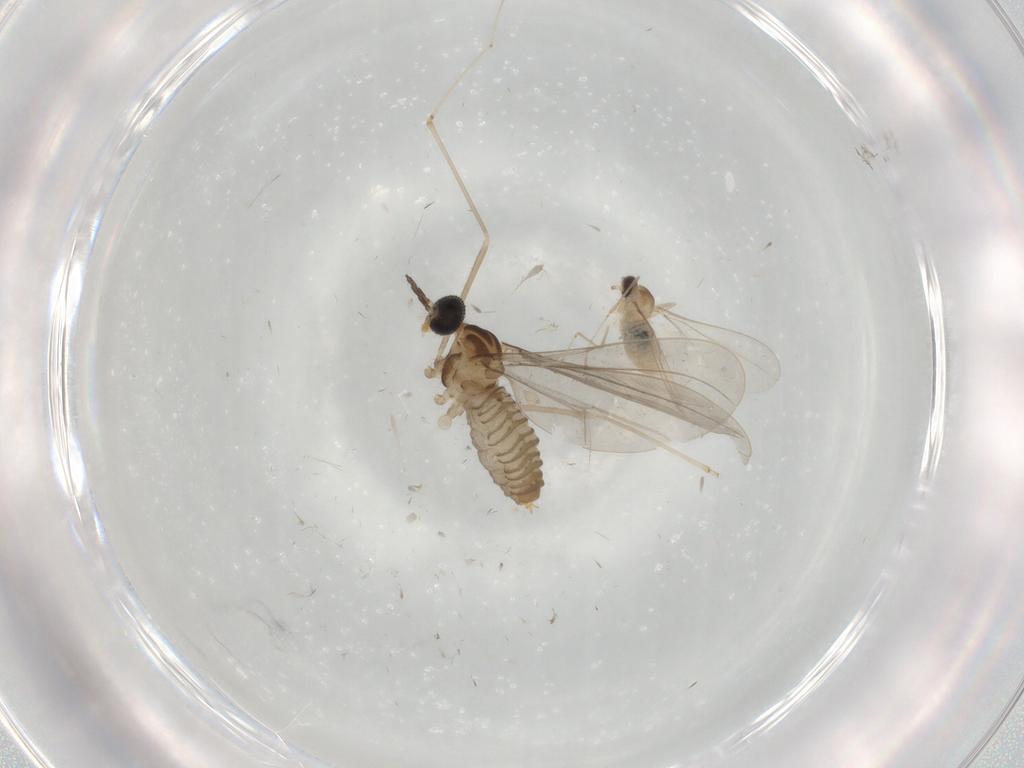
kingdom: Animalia
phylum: Arthropoda
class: Insecta
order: Diptera
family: Cecidomyiidae
